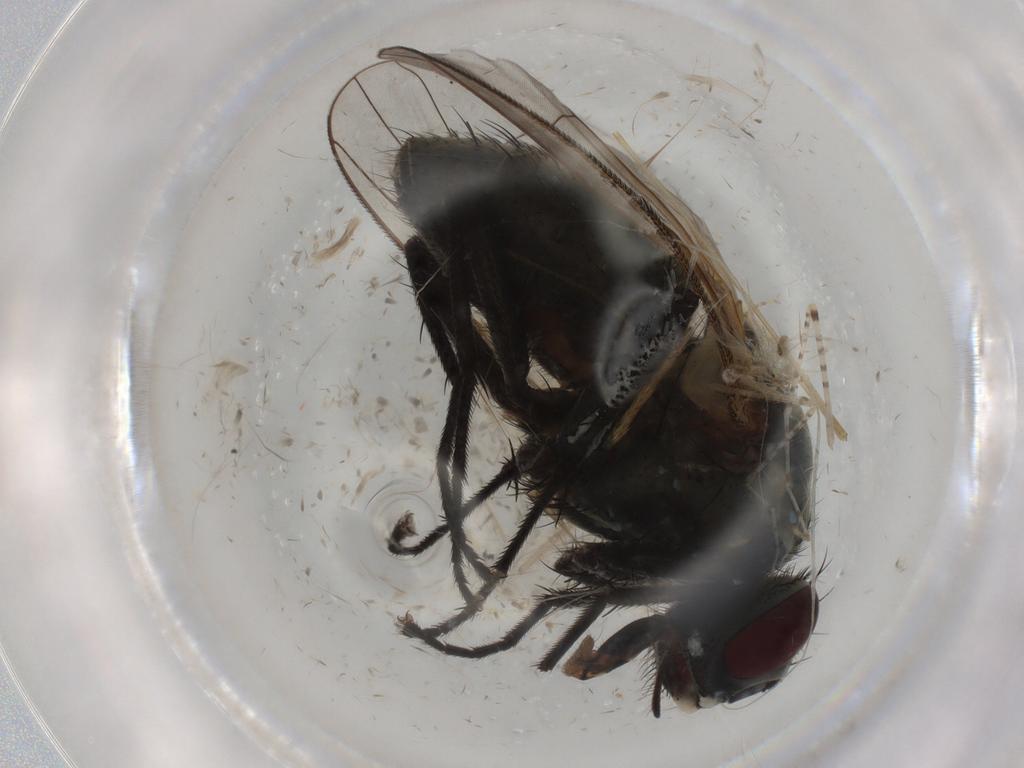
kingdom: Animalia
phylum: Arthropoda
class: Insecta
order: Diptera
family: Muscidae
